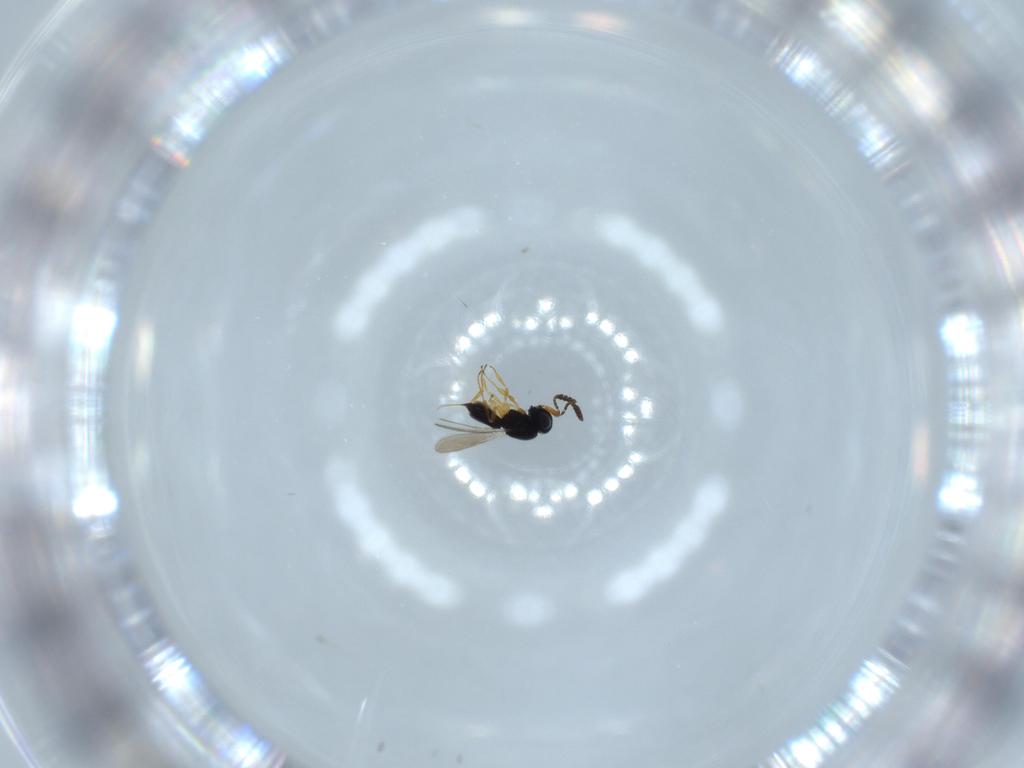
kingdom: Animalia
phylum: Arthropoda
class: Insecta
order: Hymenoptera
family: Scelionidae
